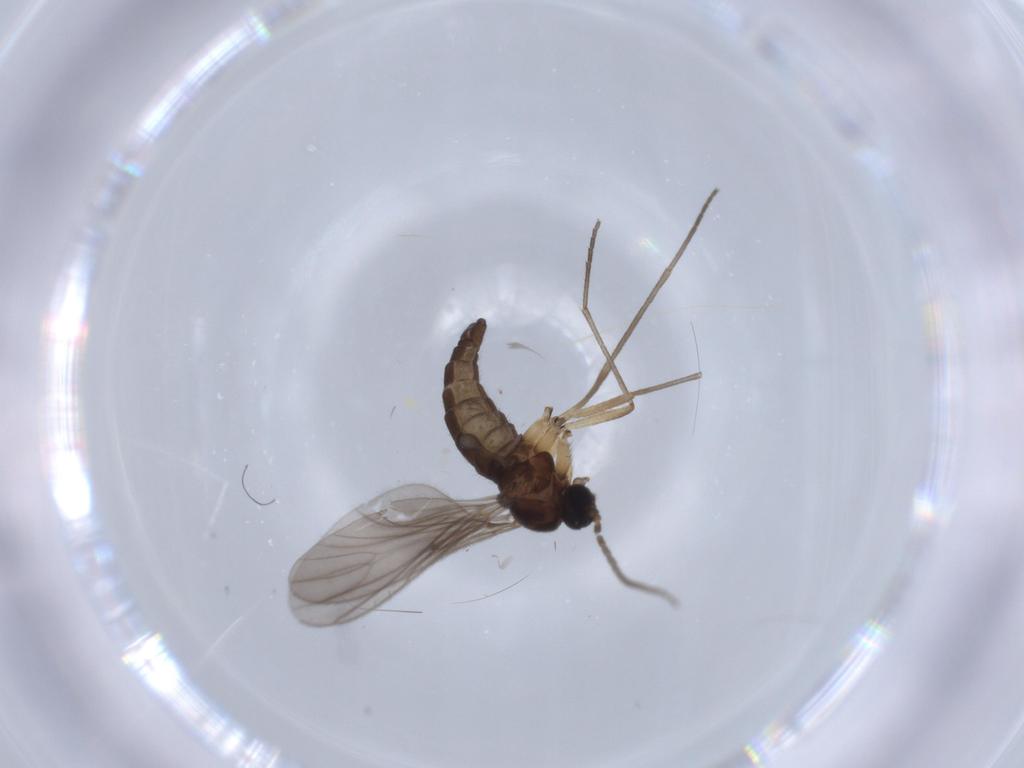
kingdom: Animalia
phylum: Arthropoda
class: Insecta
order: Diptera
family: Sciaridae
